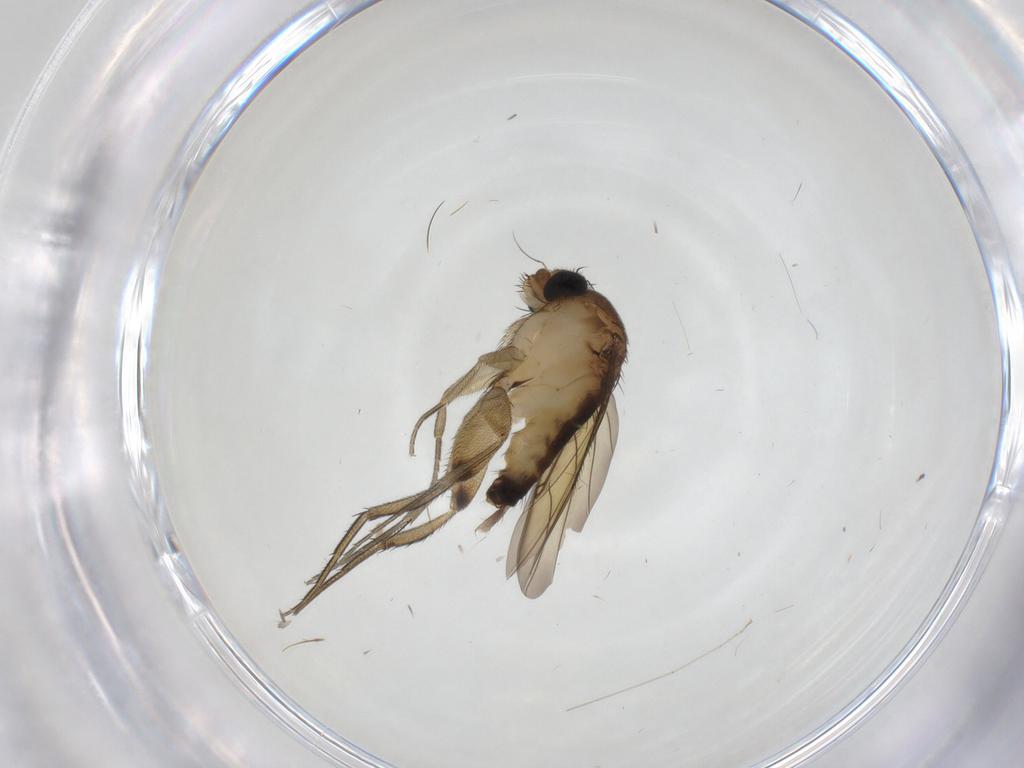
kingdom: Animalia
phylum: Arthropoda
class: Insecta
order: Diptera
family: Phoridae
